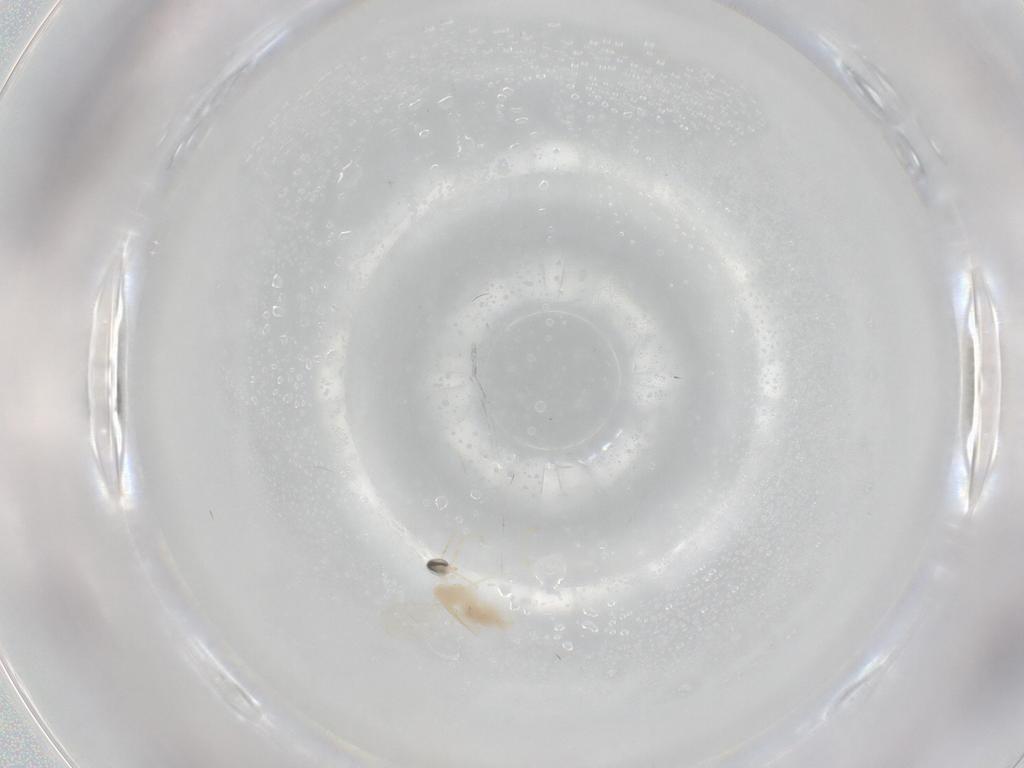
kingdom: Animalia
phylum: Arthropoda
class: Insecta
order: Diptera
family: Cecidomyiidae
